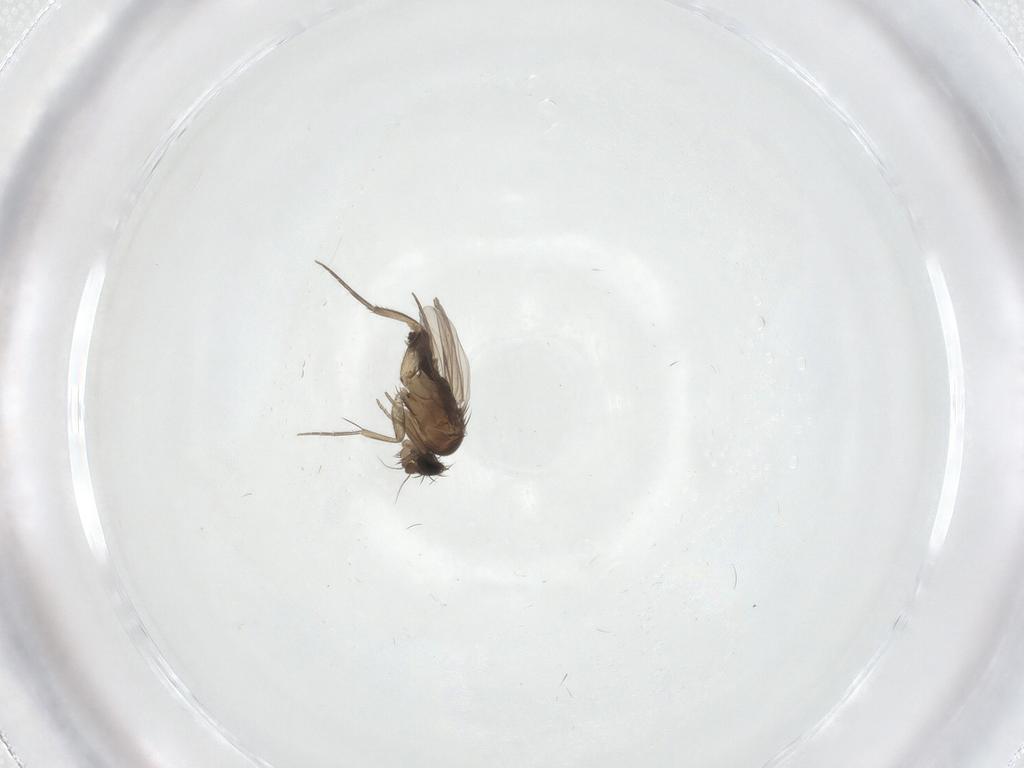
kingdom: Animalia
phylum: Arthropoda
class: Insecta
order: Diptera
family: Phoridae
